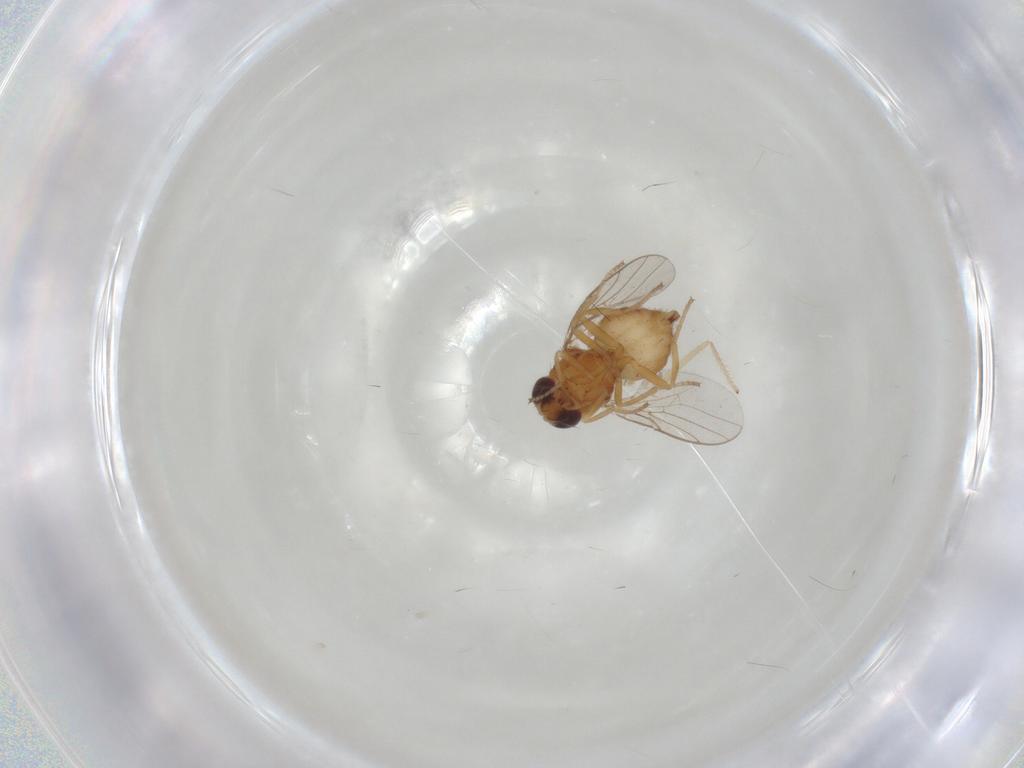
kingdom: Animalia
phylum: Arthropoda
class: Insecta
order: Diptera
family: Chloropidae
